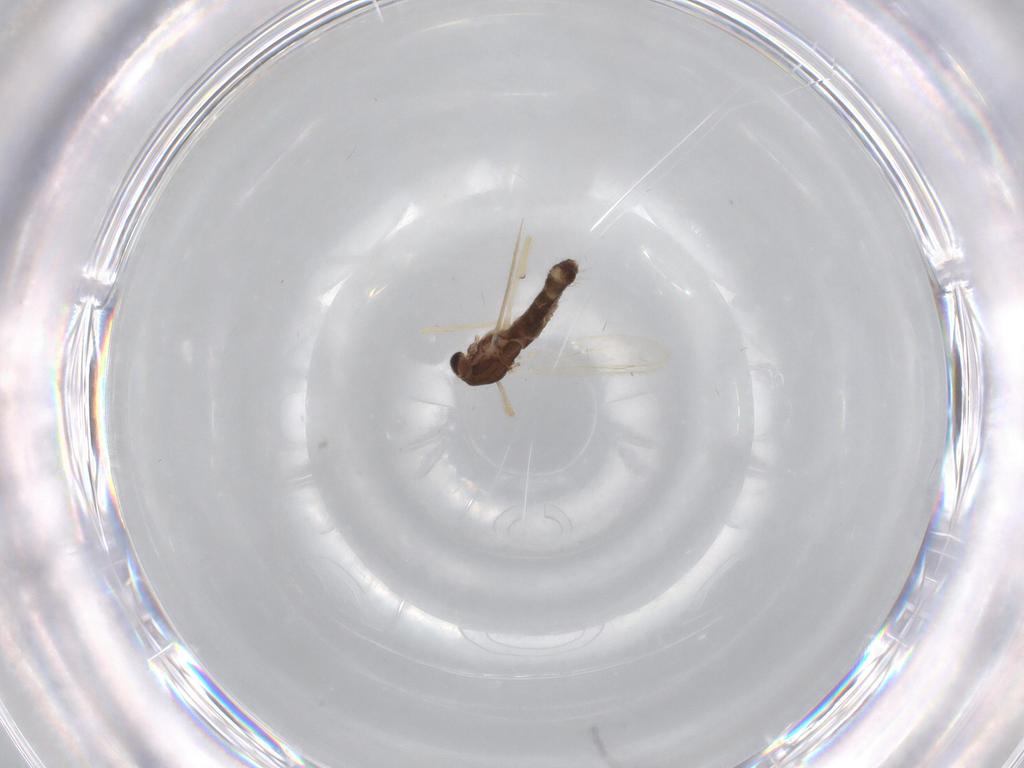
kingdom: Animalia
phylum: Arthropoda
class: Insecta
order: Diptera
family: Chironomidae
